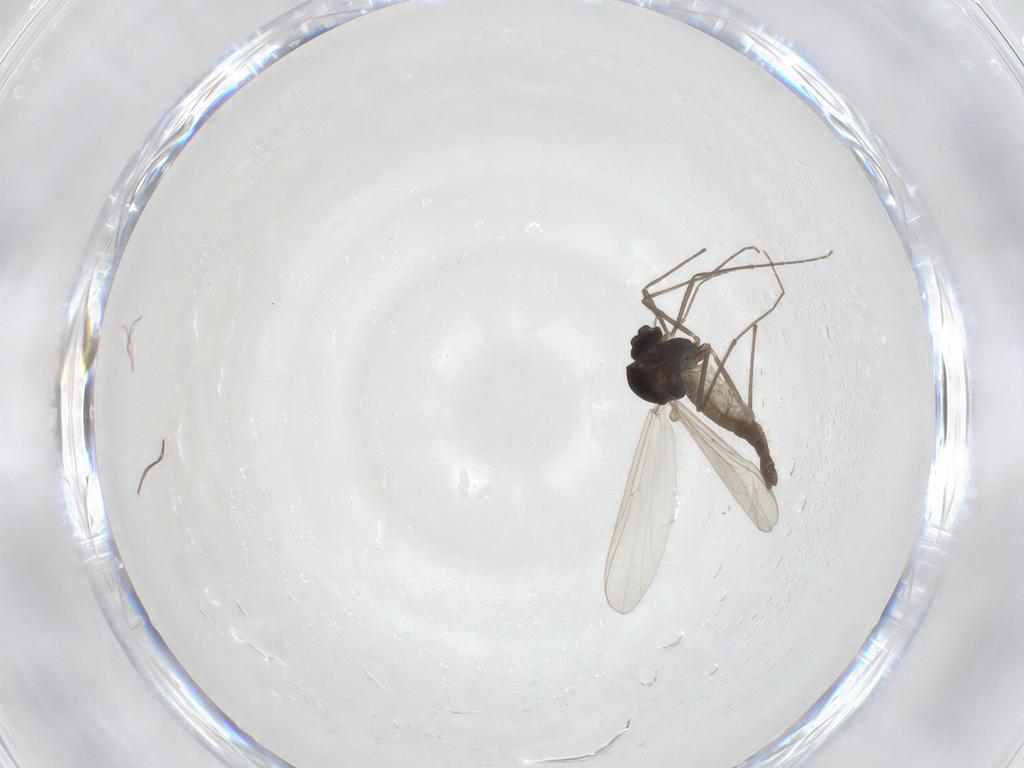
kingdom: Animalia
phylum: Arthropoda
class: Insecta
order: Diptera
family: Chironomidae
